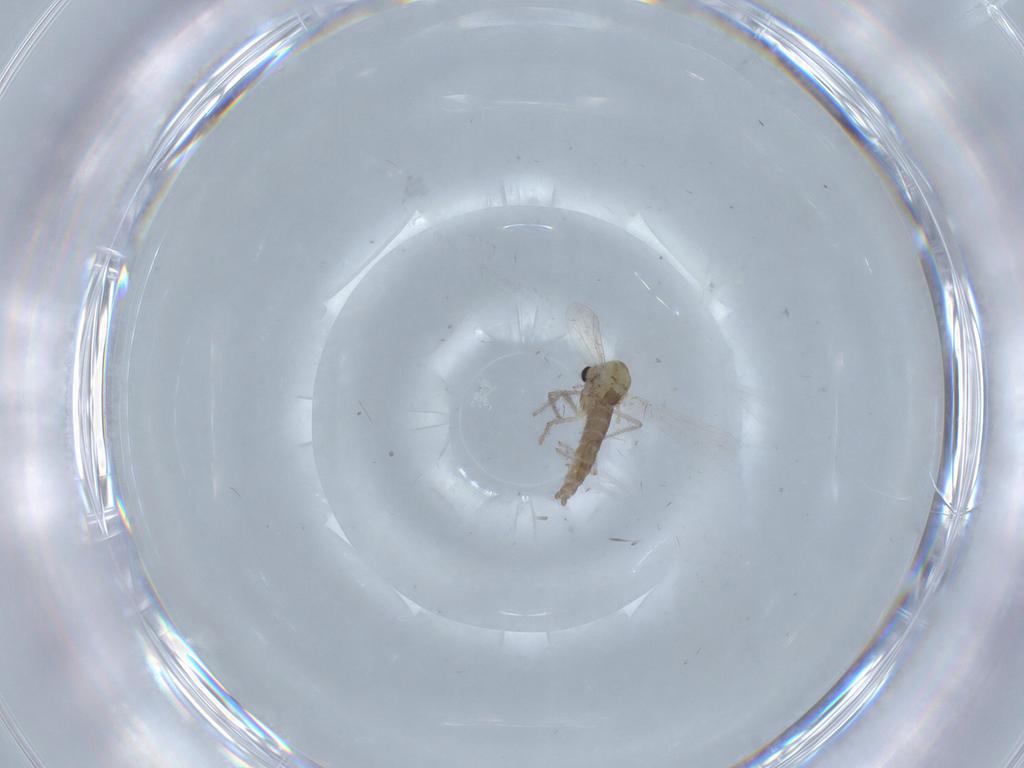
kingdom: Animalia
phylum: Arthropoda
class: Insecta
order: Diptera
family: Chironomidae
